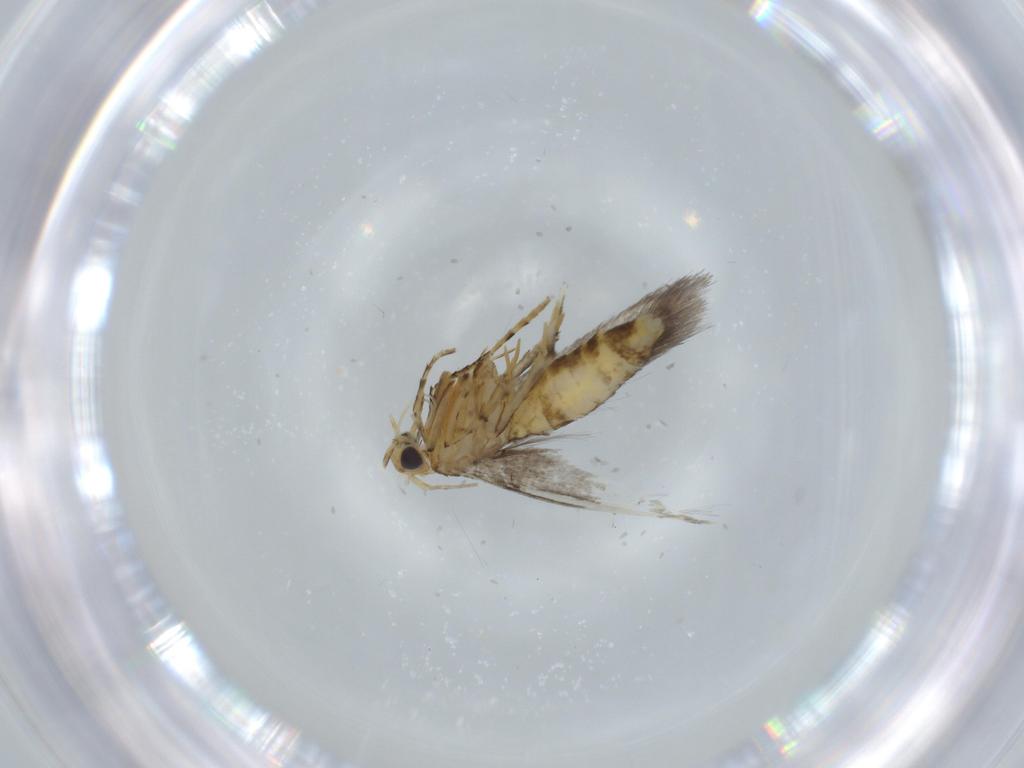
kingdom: Animalia
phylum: Arthropoda
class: Insecta
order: Lepidoptera
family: Argyresthiidae
